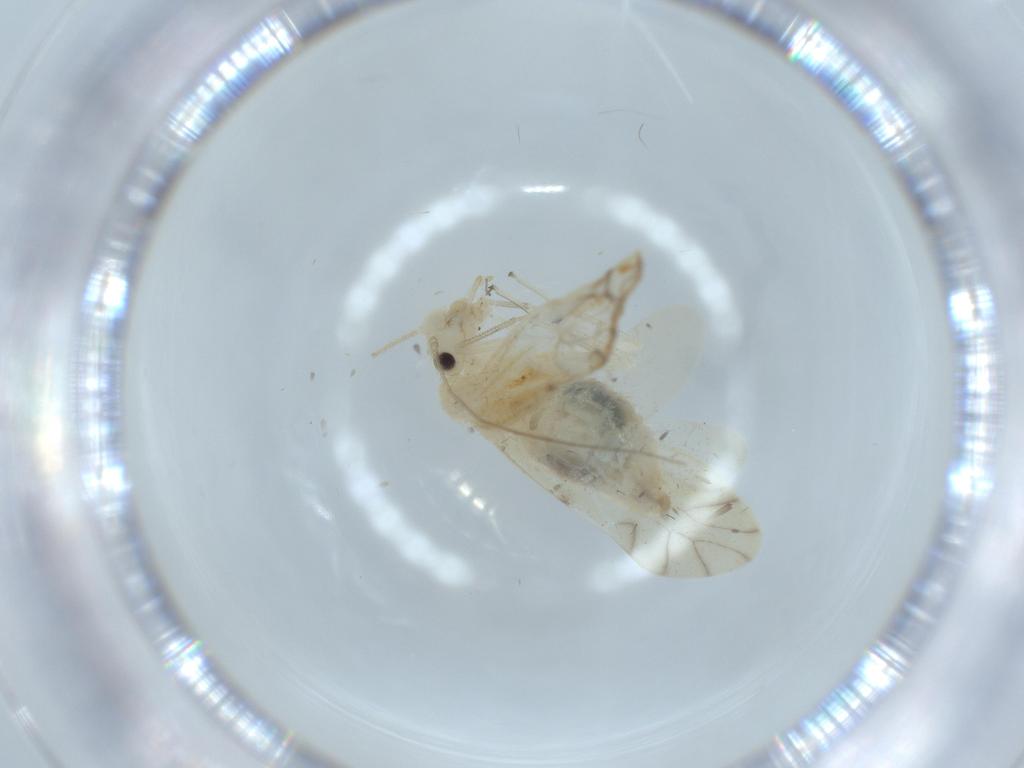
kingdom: Animalia
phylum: Arthropoda
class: Insecta
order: Psocodea
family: Caeciliusidae
